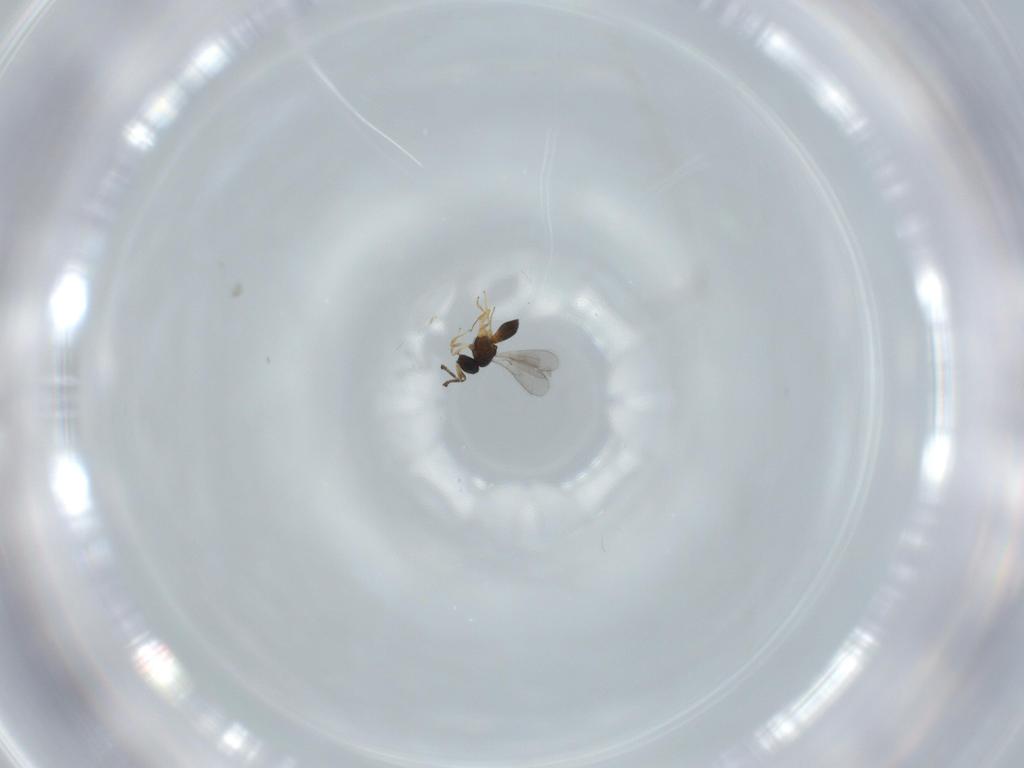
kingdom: Animalia
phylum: Arthropoda
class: Insecta
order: Hymenoptera
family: Scelionidae
